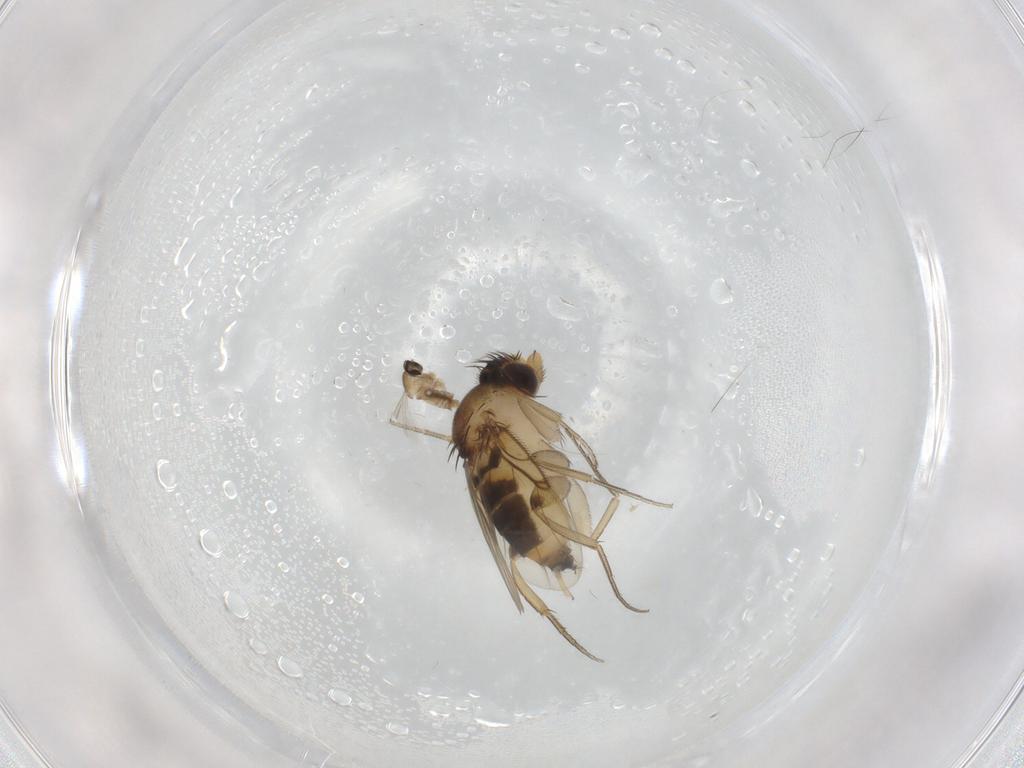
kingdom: Animalia
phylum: Arthropoda
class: Insecta
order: Diptera
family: Phoridae
